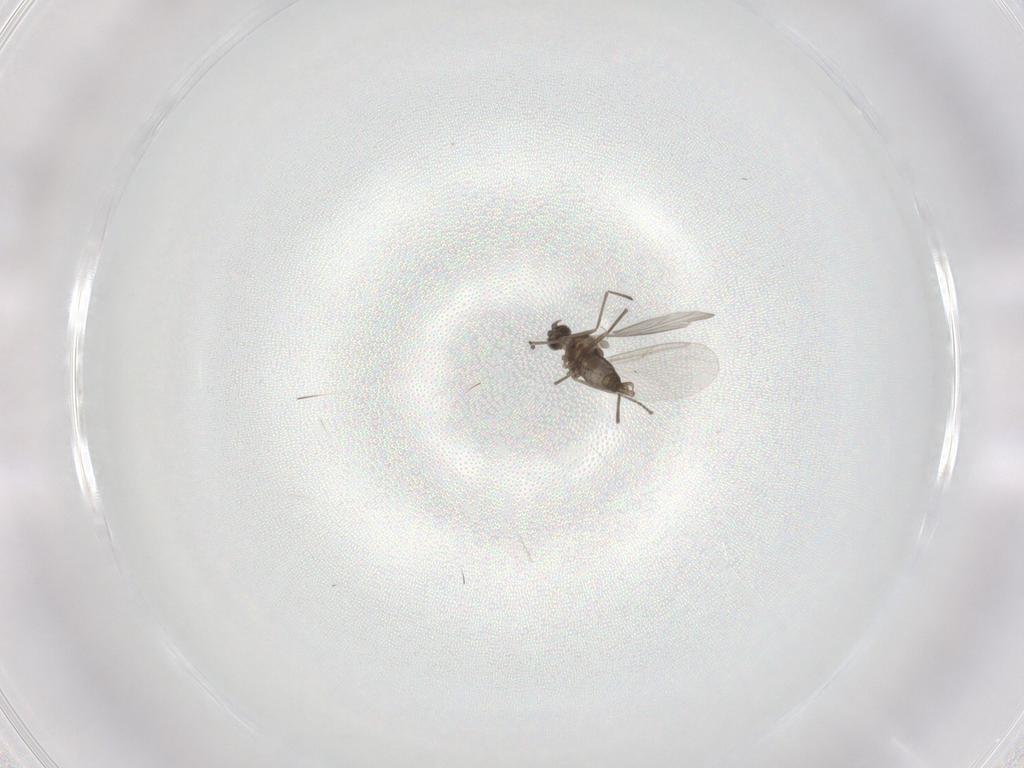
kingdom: Animalia
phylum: Arthropoda
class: Insecta
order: Diptera
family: Cecidomyiidae
